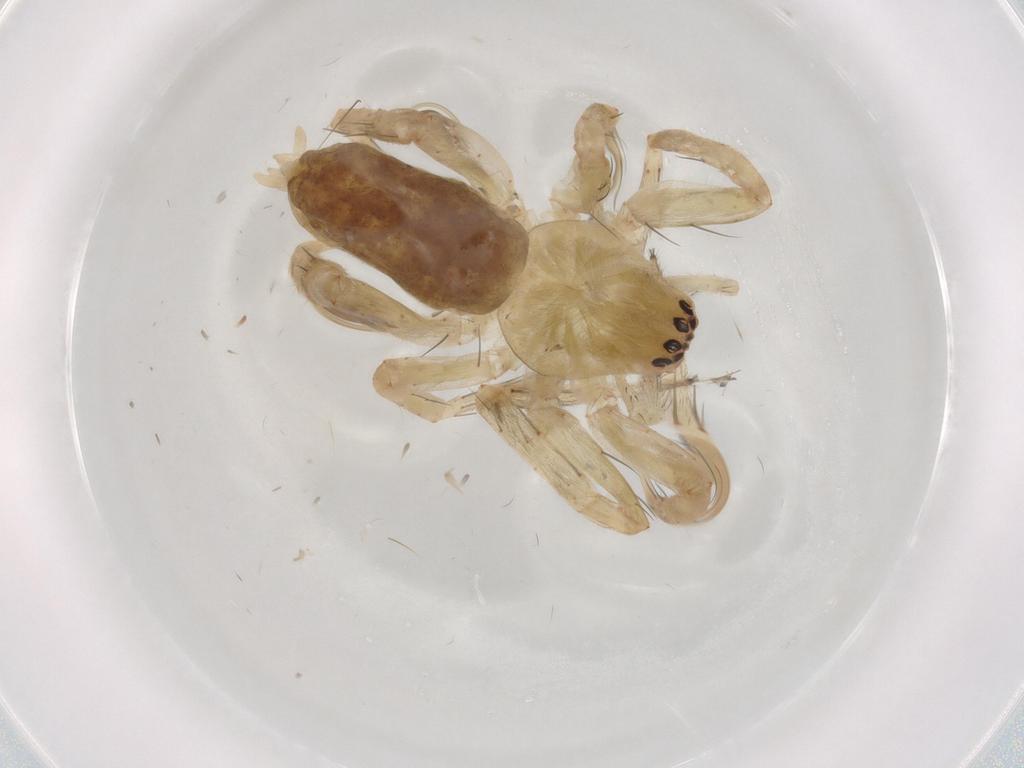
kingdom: Animalia
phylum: Arthropoda
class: Arachnida
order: Araneae
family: Anyphaenidae
